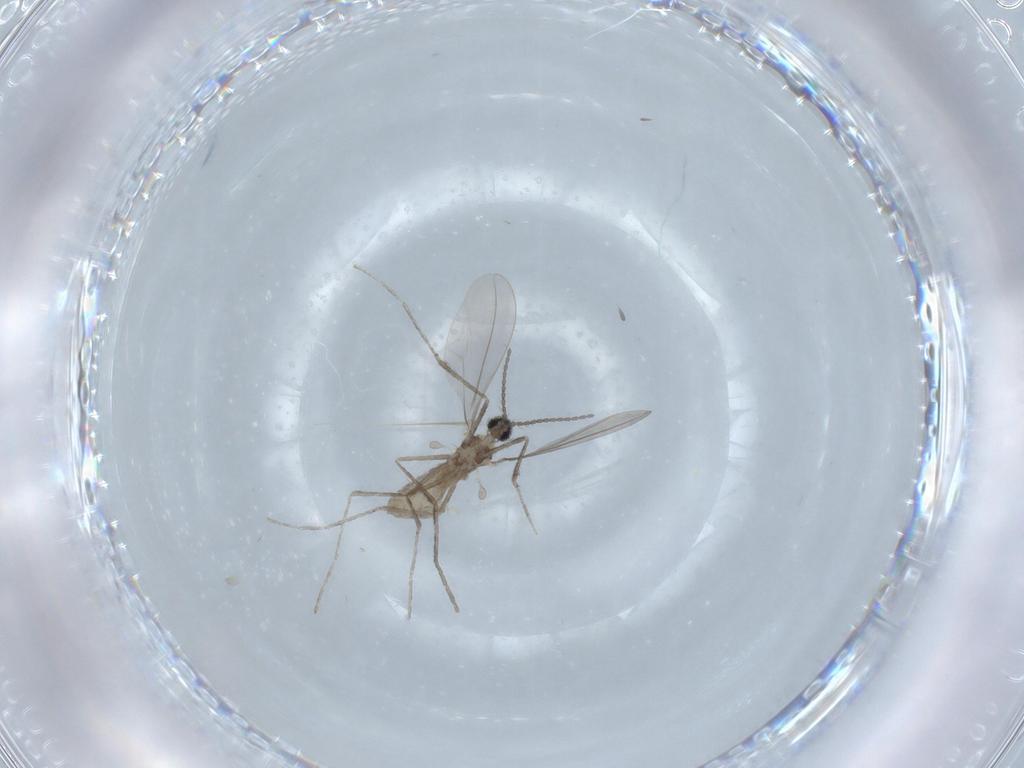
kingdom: Animalia
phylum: Arthropoda
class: Insecta
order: Diptera
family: Cecidomyiidae
